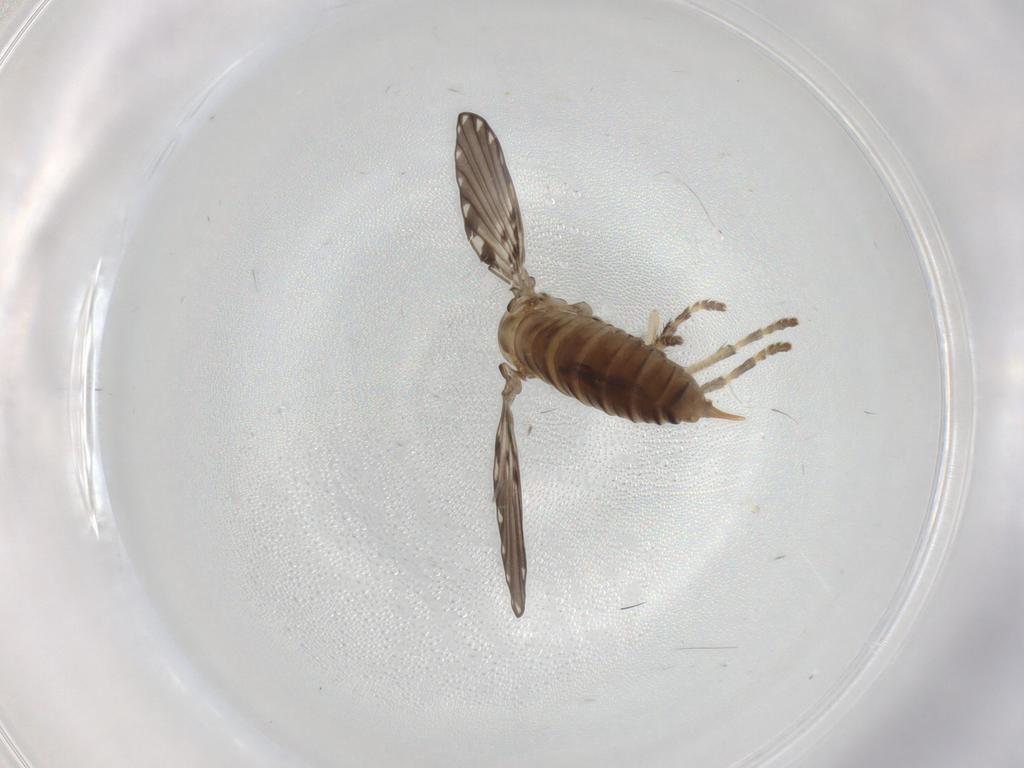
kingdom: Animalia
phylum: Arthropoda
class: Insecta
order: Diptera
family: Psychodidae
